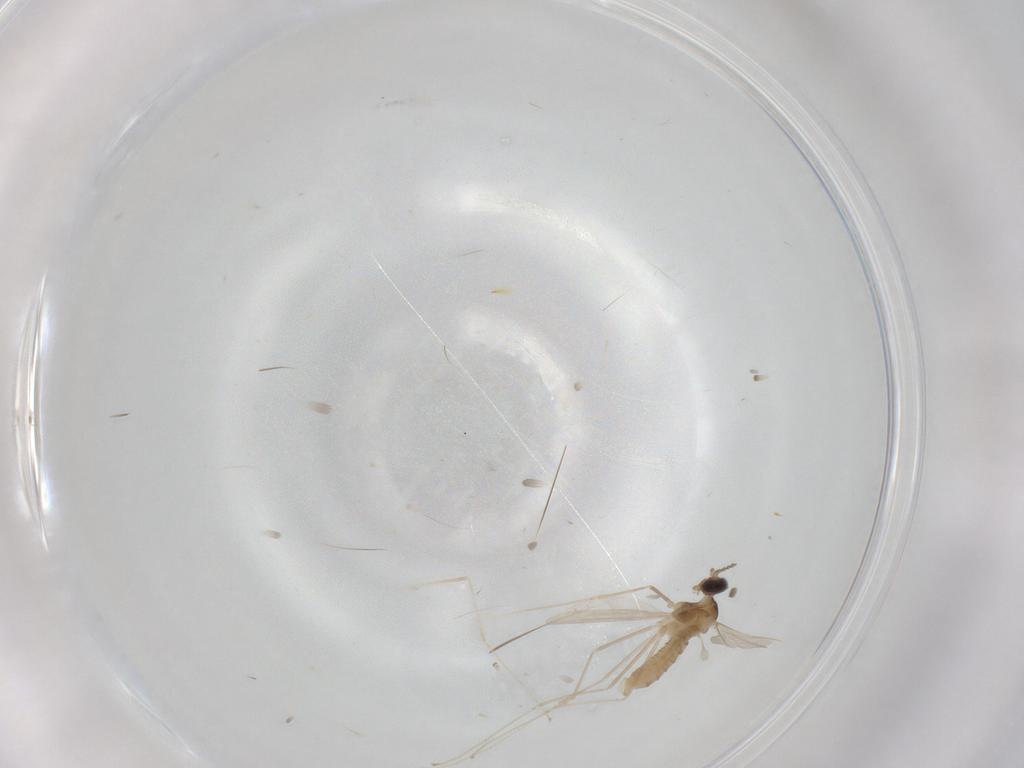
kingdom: Animalia
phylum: Arthropoda
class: Insecta
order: Diptera
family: Cecidomyiidae
